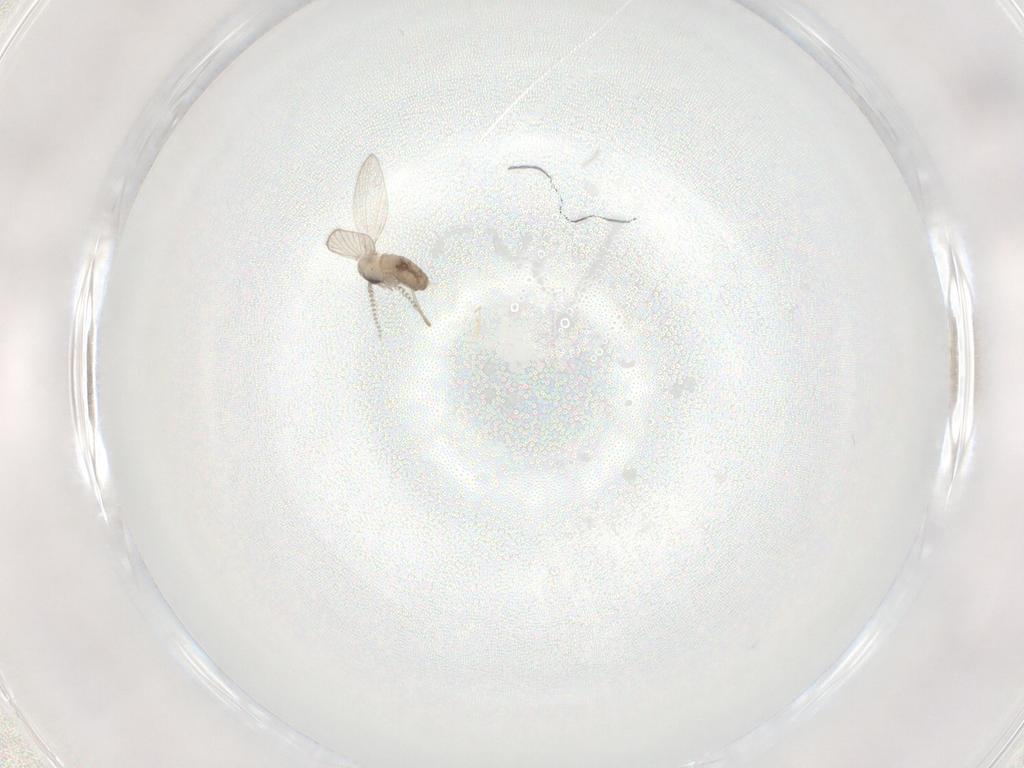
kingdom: Animalia
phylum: Arthropoda
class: Insecta
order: Diptera
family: Psychodidae
